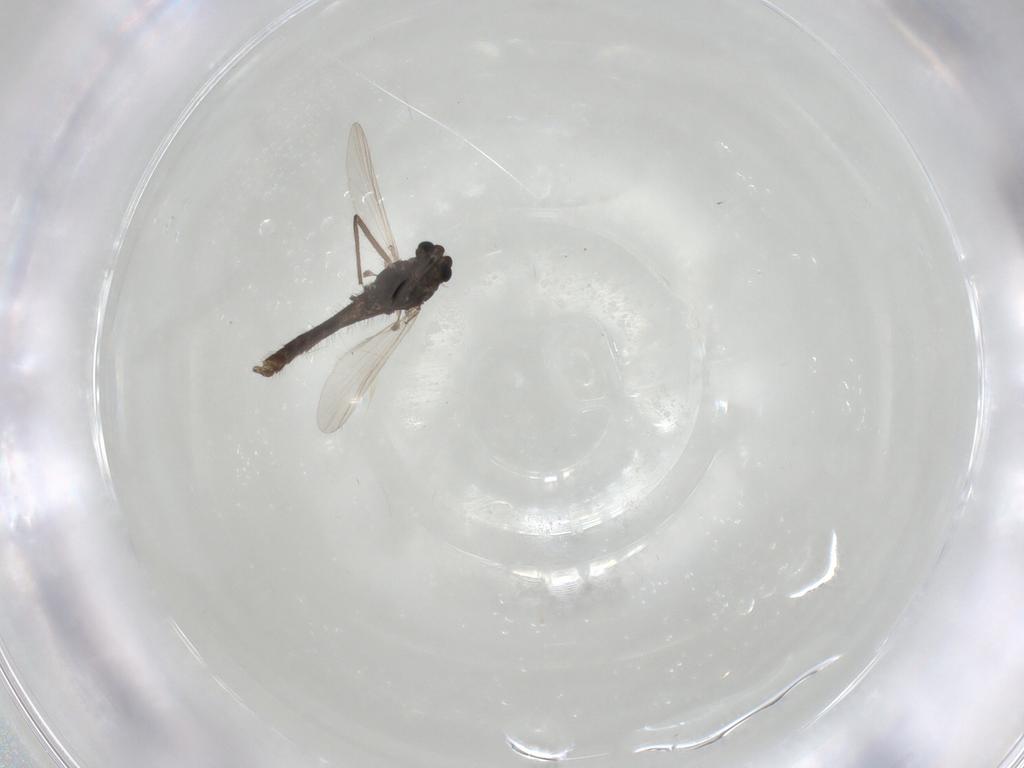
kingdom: Animalia
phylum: Arthropoda
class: Insecta
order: Diptera
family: Chironomidae
